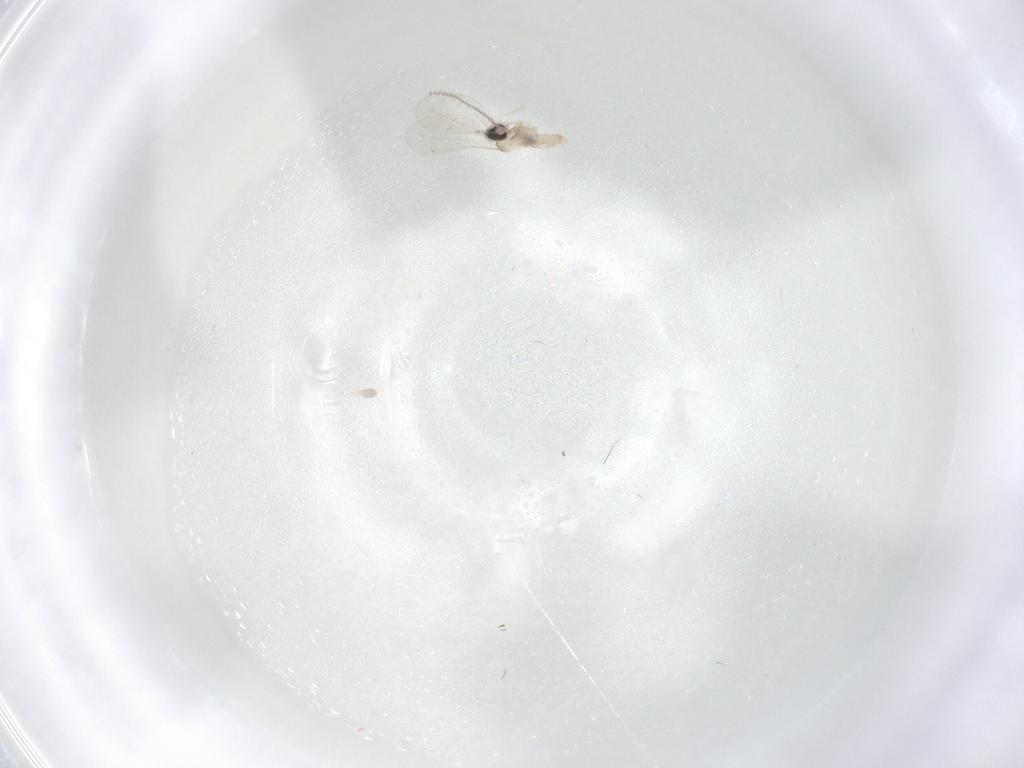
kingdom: Animalia
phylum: Arthropoda
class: Insecta
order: Diptera
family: Cecidomyiidae
